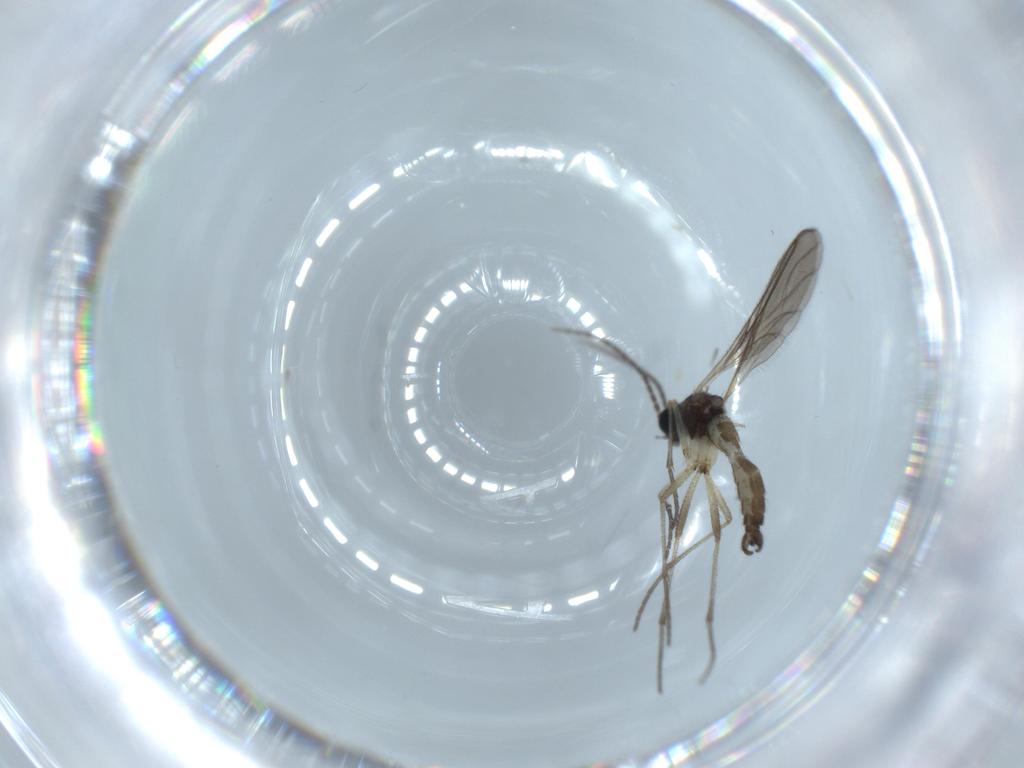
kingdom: Animalia
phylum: Arthropoda
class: Insecta
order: Diptera
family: Sciaridae
